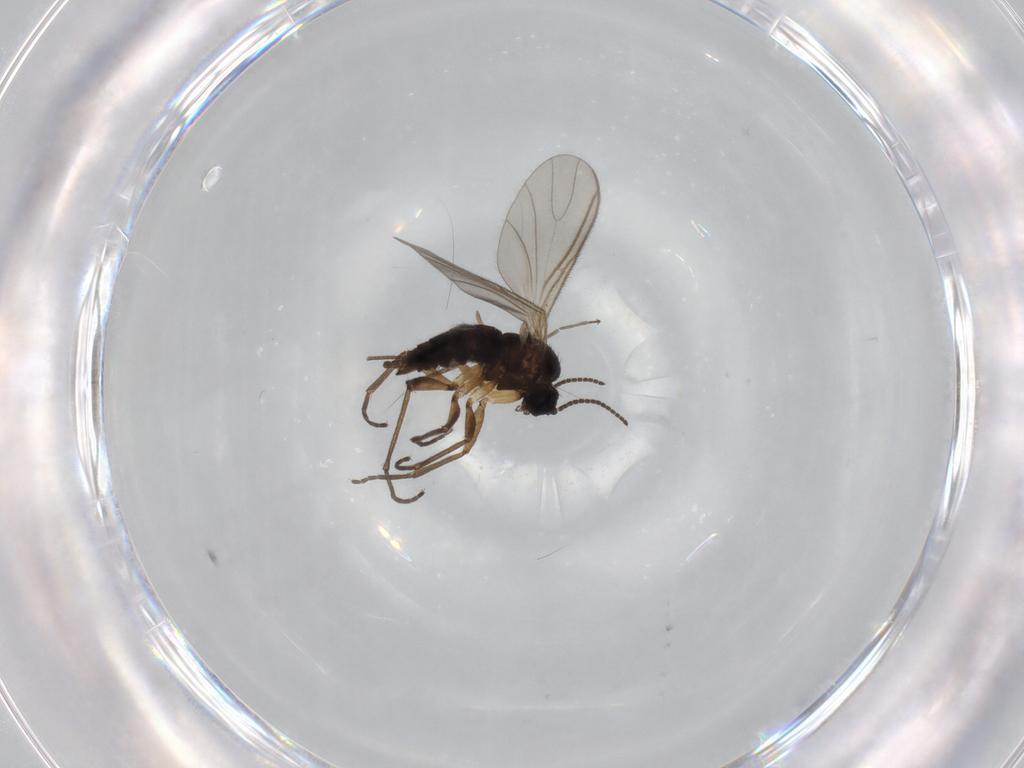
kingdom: Animalia
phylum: Arthropoda
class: Insecta
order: Diptera
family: Sciaridae
